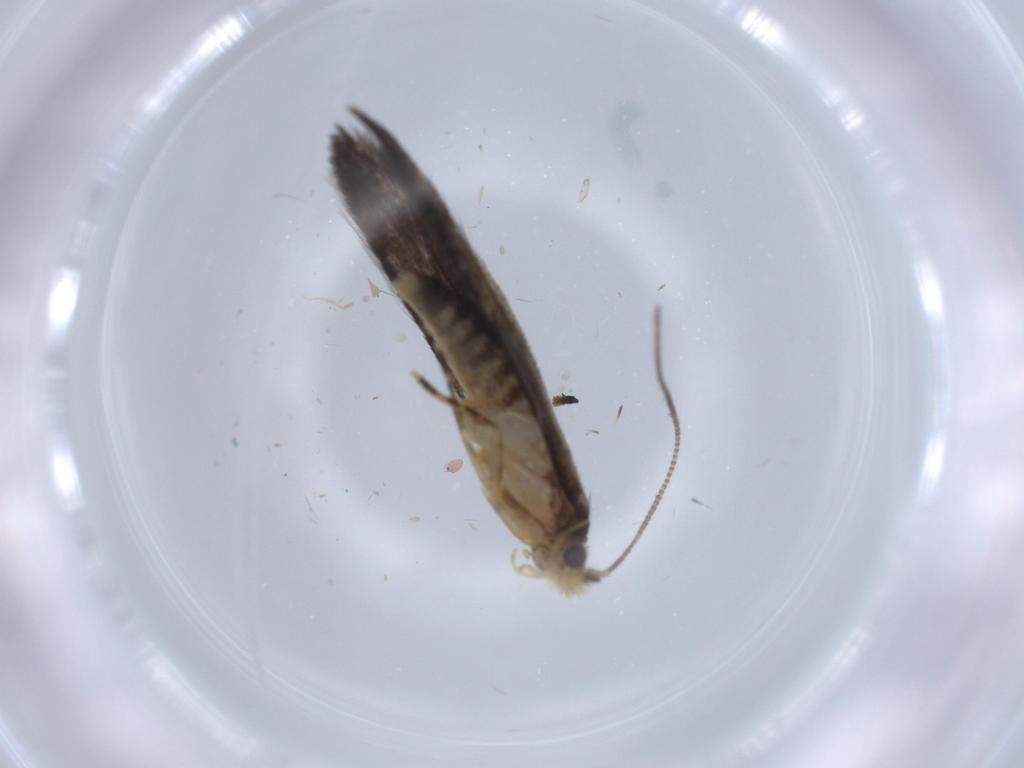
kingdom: Animalia
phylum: Arthropoda
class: Insecta
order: Lepidoptera
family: Tineidae
